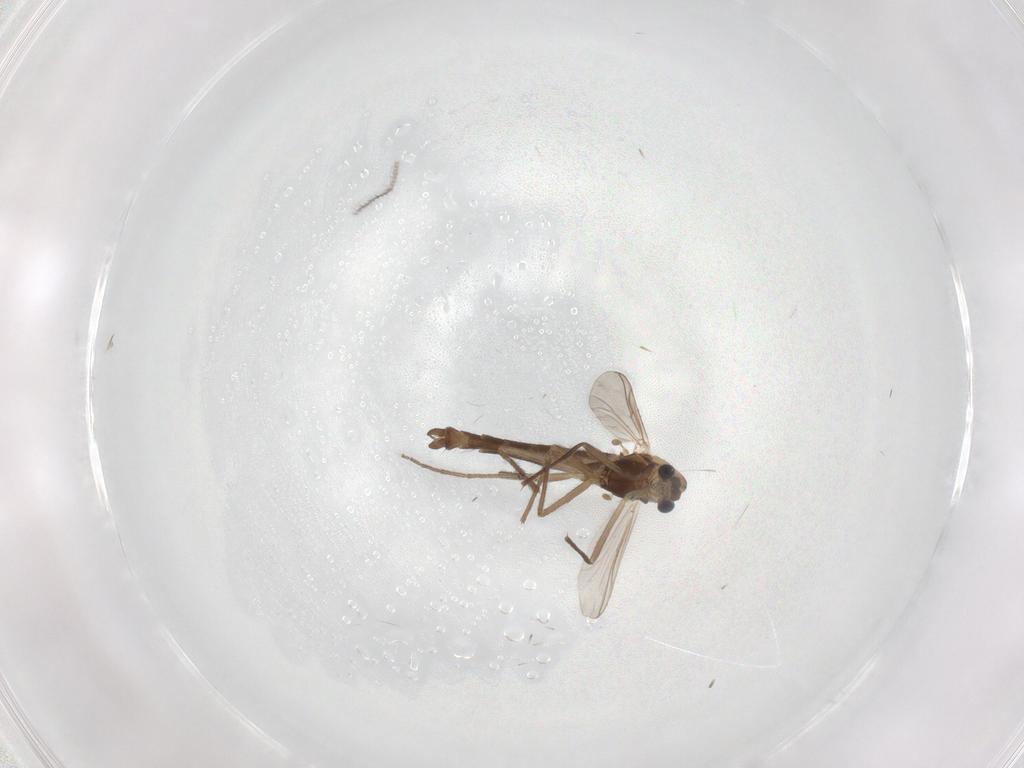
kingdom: Animalia
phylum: Arthropoda
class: Insecta
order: Diptera
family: Chironomidae
